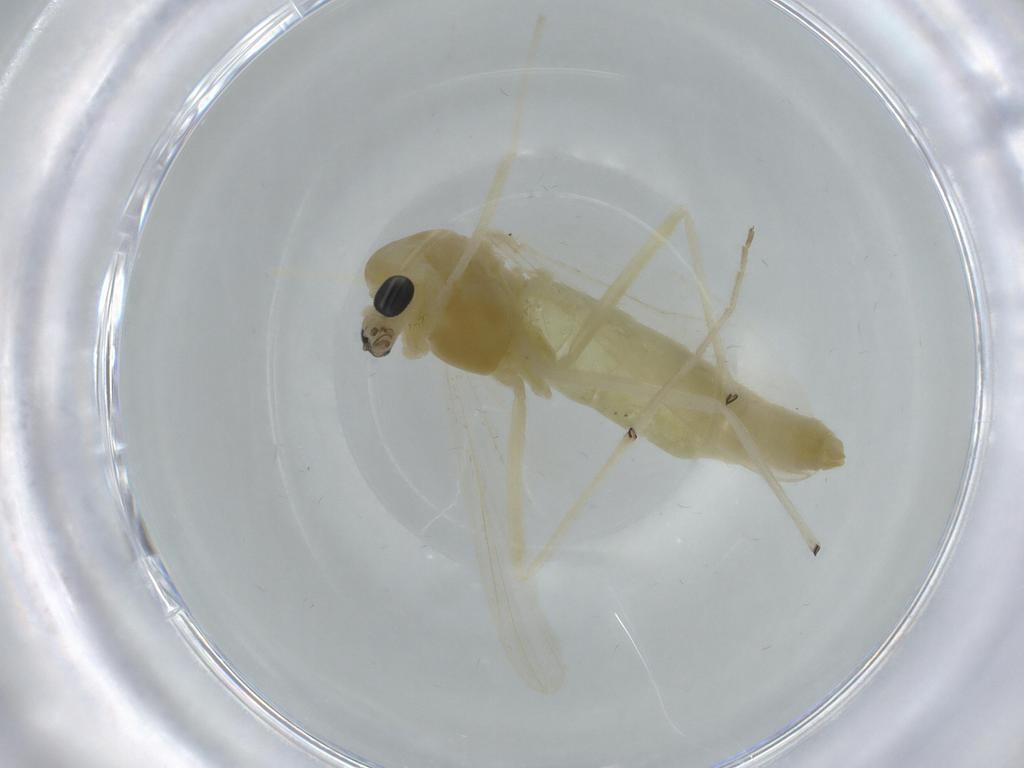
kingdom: Animalia
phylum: Arthropoda
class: Insecta
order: Diptera
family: Chironomidae
